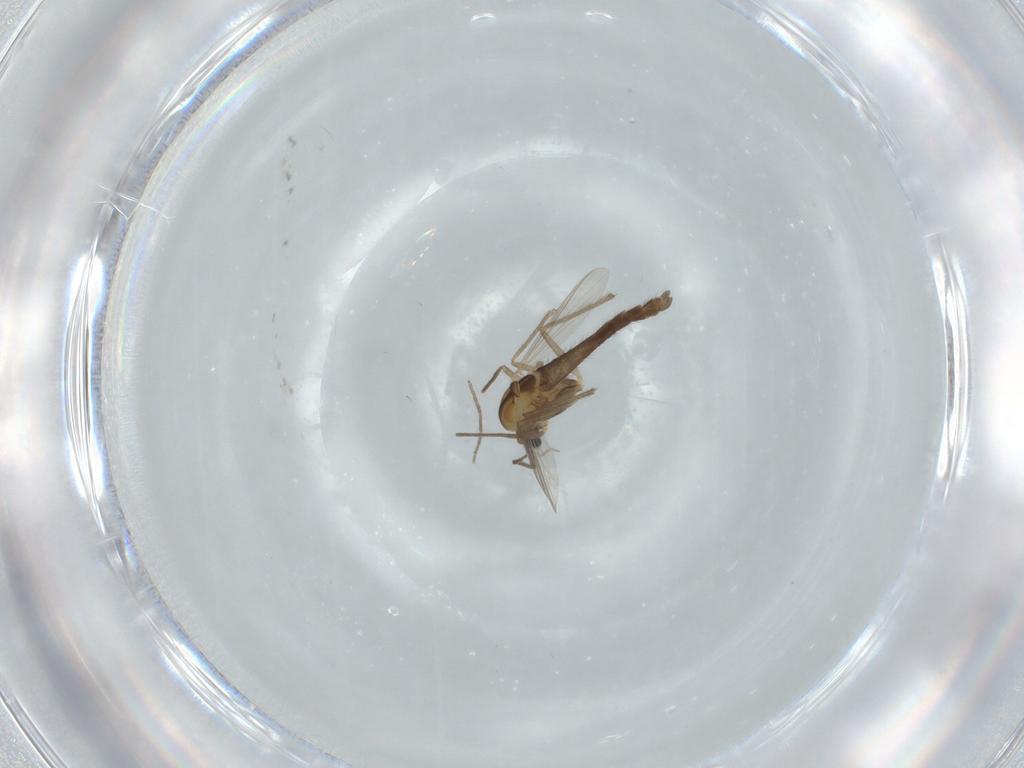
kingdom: Animalia
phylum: Arthropoda
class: Insecta
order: Diptera
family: Chironomidae
